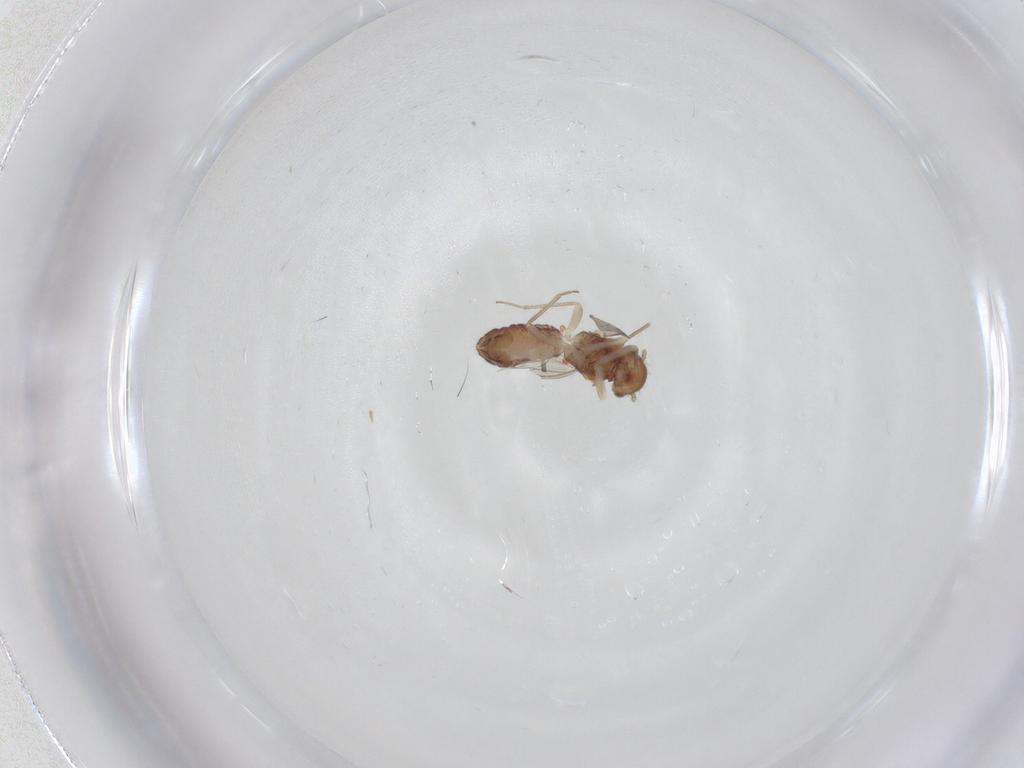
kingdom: Animalia
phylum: Arthropoda
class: Insecta
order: Psocodea
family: Ectopsocidae
